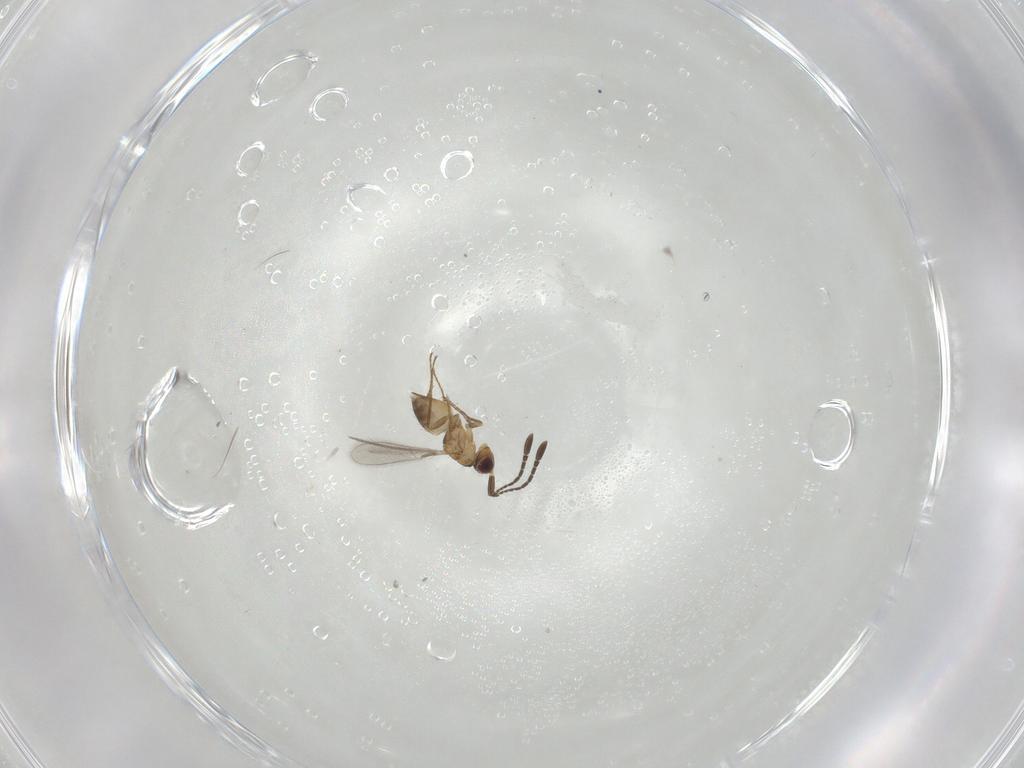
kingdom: Animalia
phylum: Arthropoda
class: Insecta
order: Hymenoptera
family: Mymaridae
